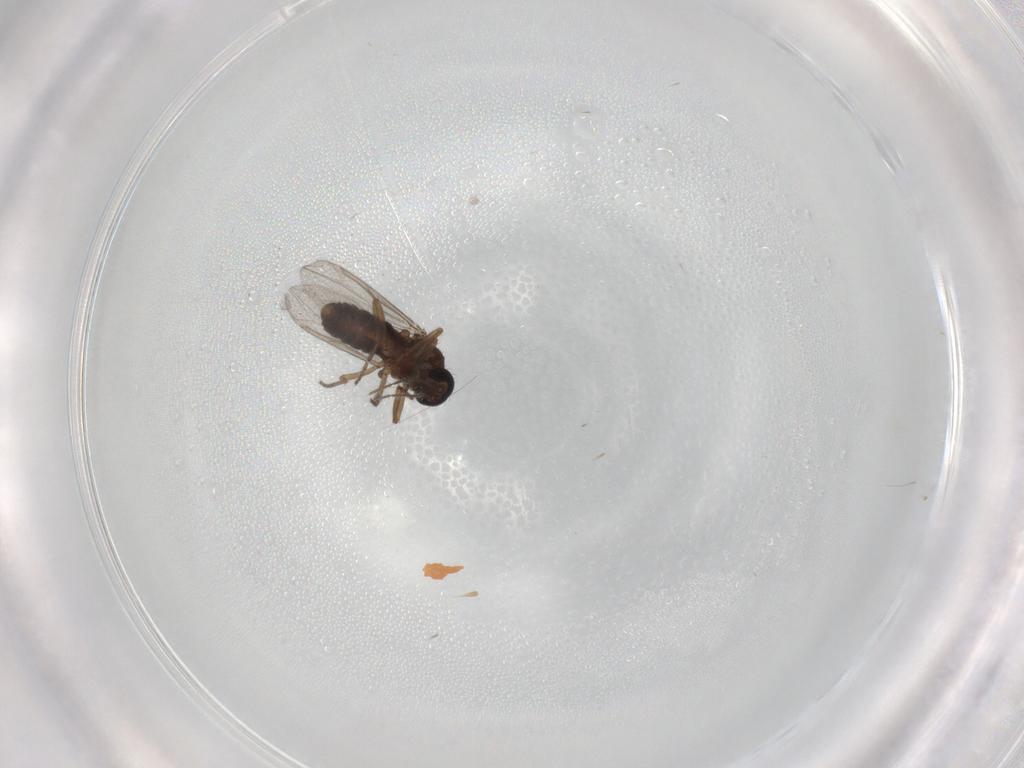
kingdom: Animalia
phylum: Arthropoda
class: Insecta
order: Diptera
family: Ceratopogonidae
